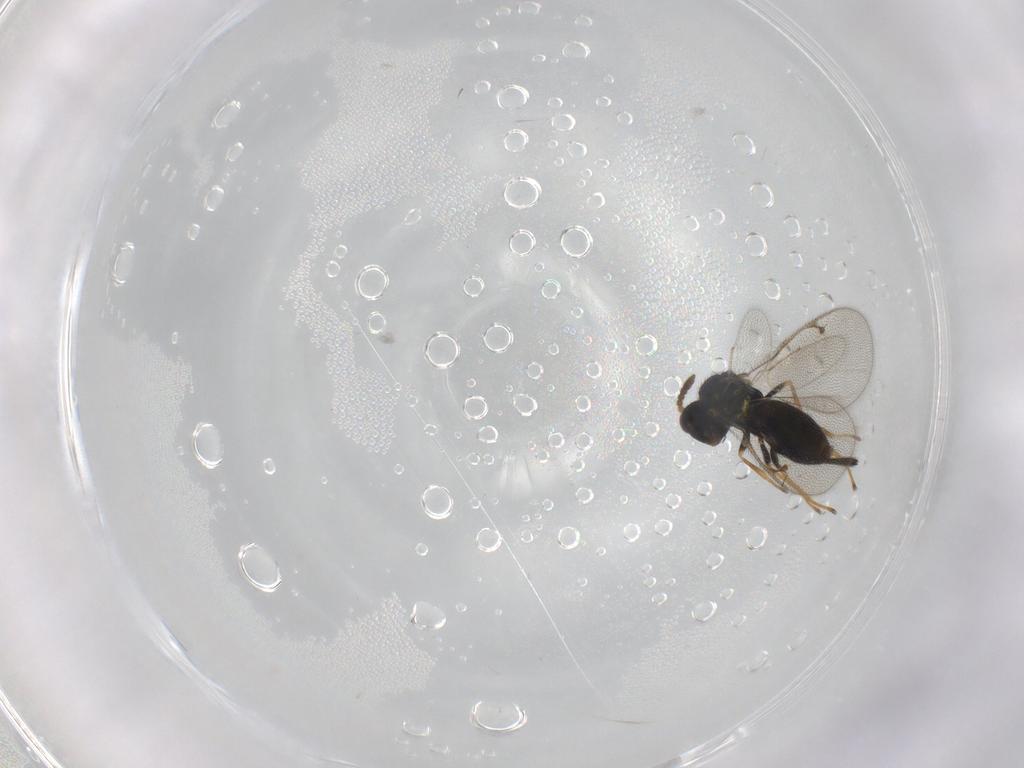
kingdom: Animalia
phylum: Arthropoda
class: Insecta
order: Hymenoptera
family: Pirenidae
